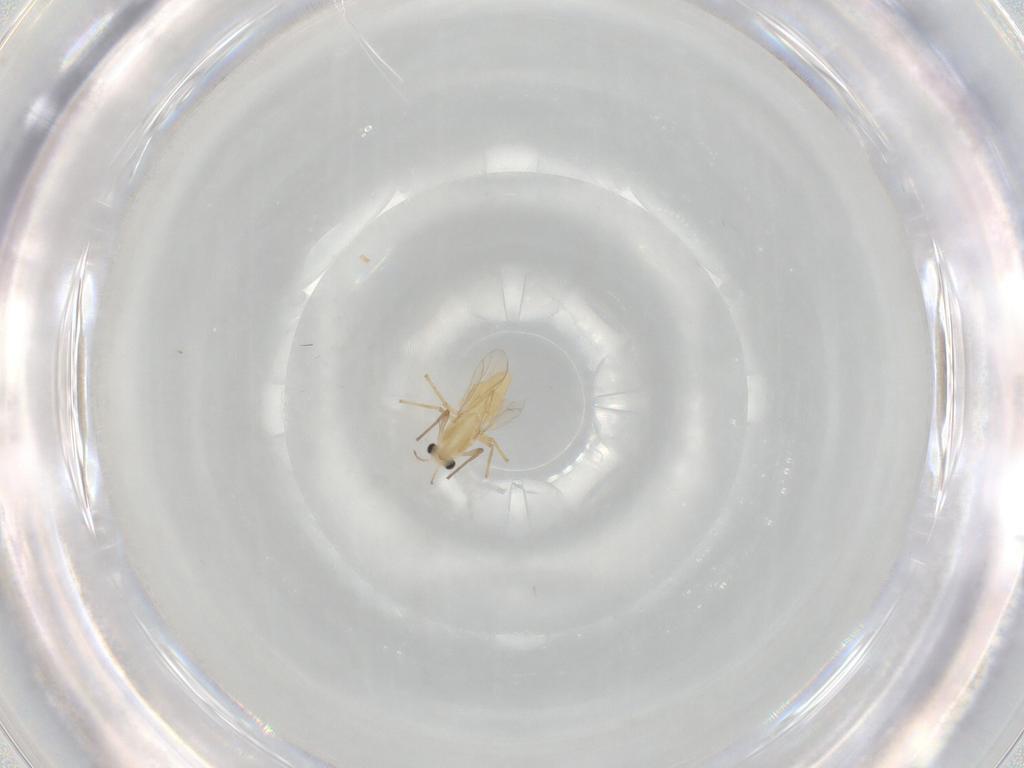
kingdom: Animalia
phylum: Arthropoda
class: Insecta
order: Diptera
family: Chironomidae
